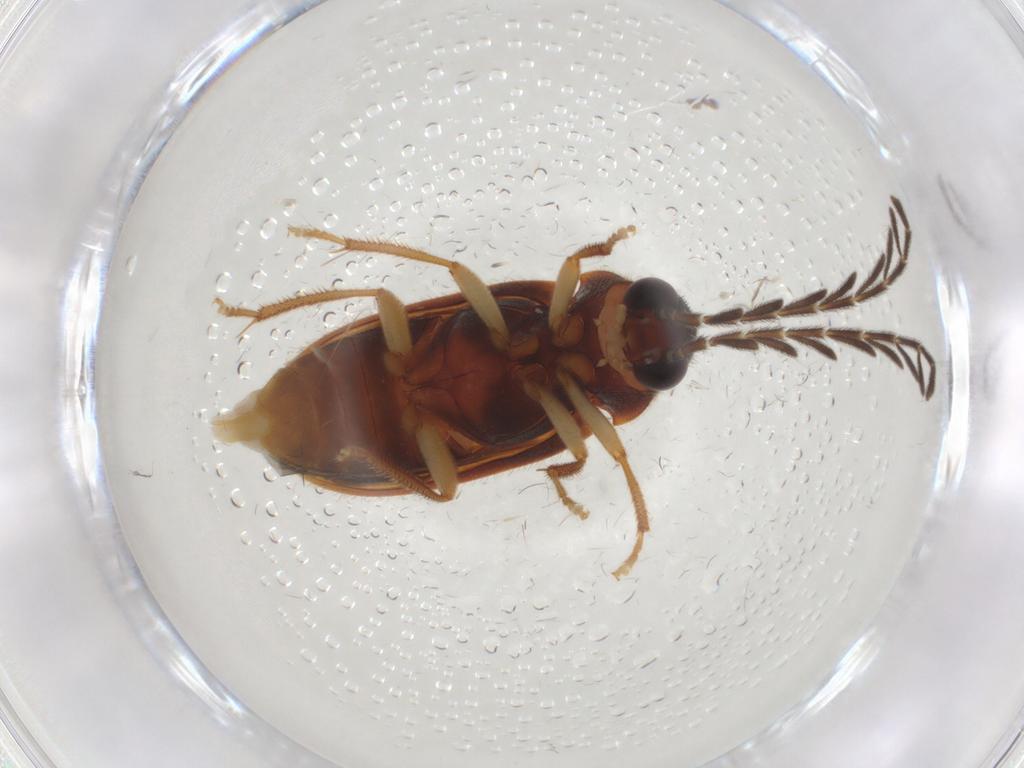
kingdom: Animalia
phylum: Arthropoda
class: Insecta
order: Coleoptera
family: Ptilodactylidae
